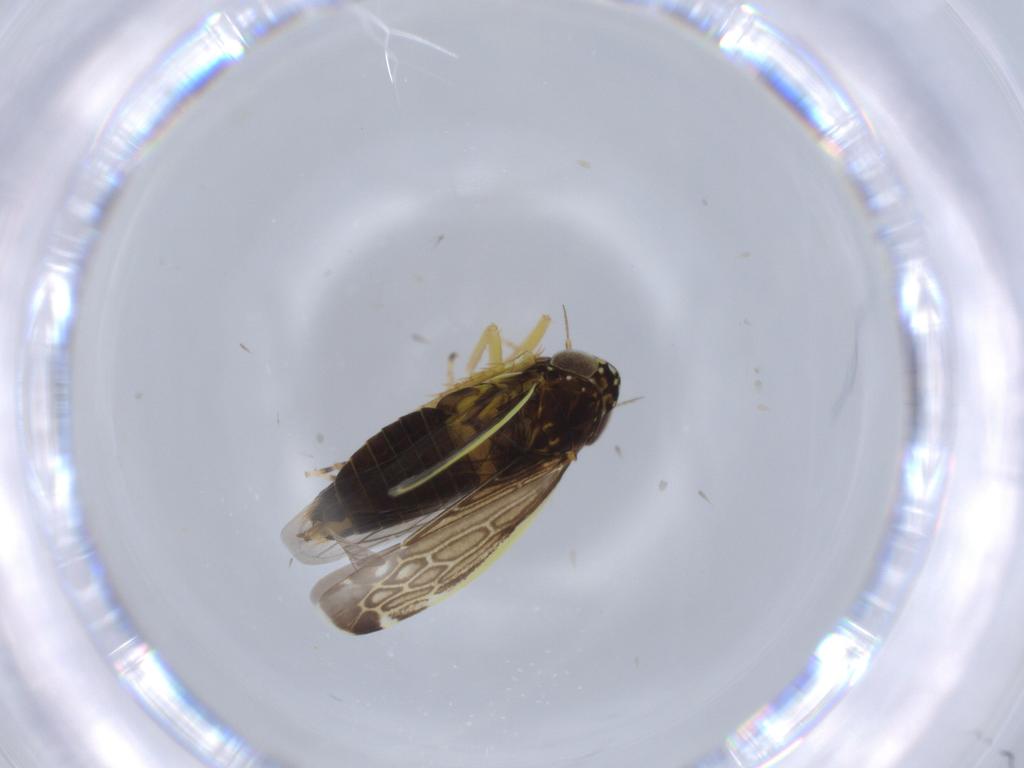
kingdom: Animalia
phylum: Arthropoda
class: Insecta
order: Hemiptera
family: Cicadellidae
